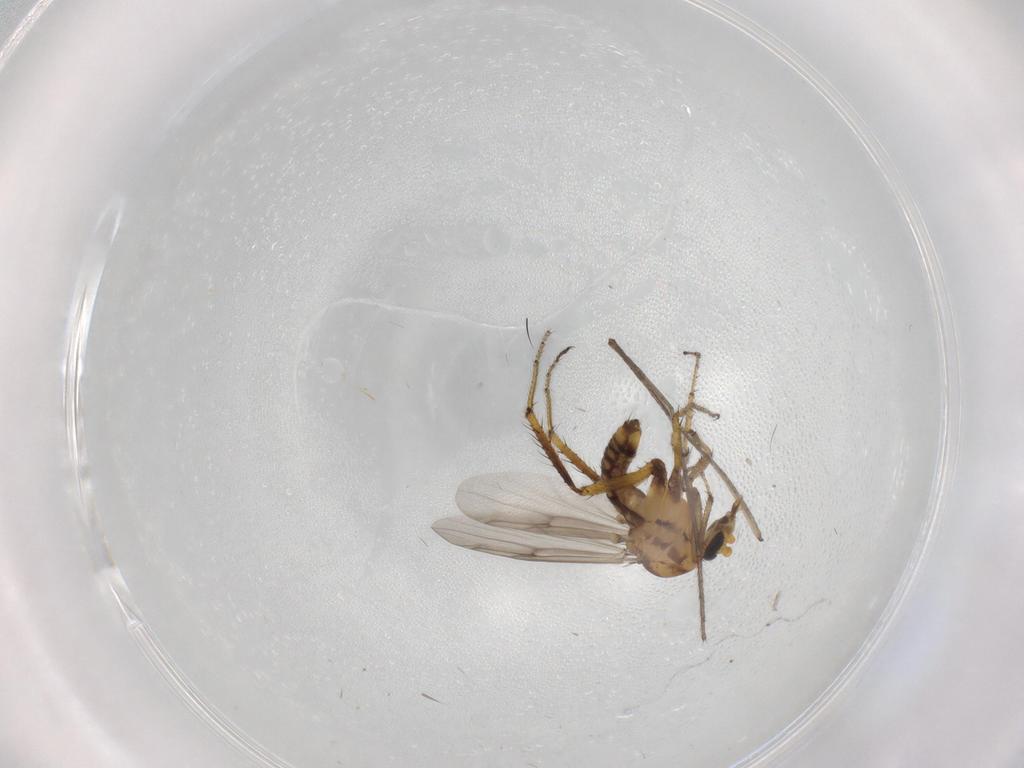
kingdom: Animalia
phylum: Arthropoda
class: Insecta
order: Diptera
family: Ceratopogonidae
